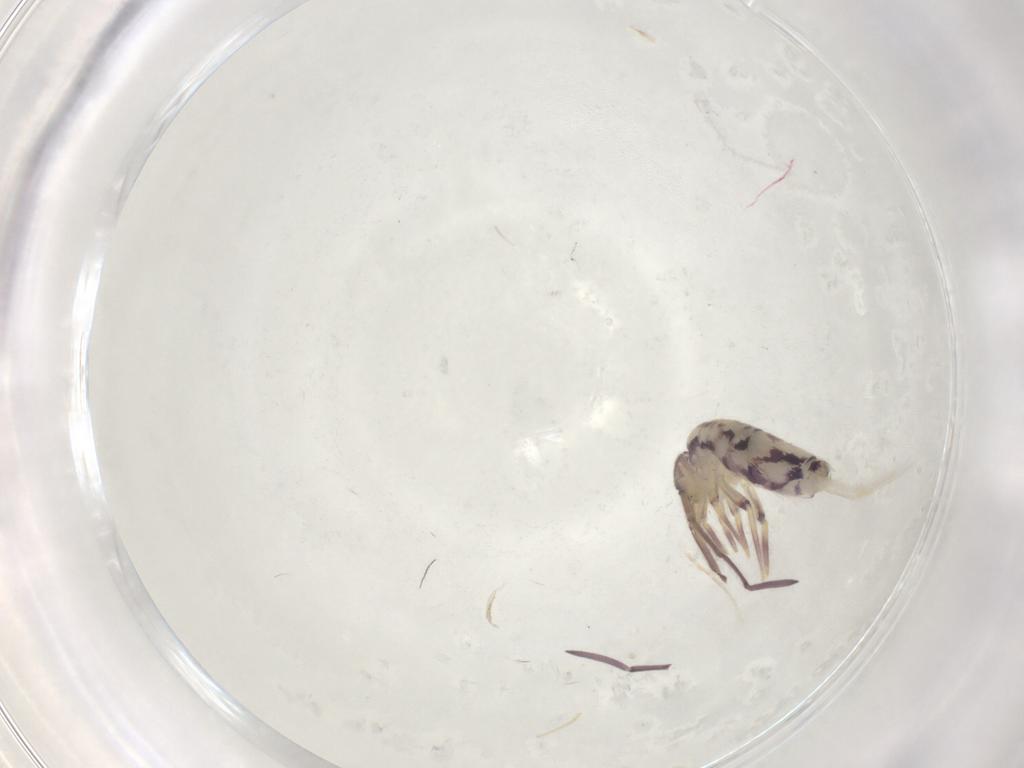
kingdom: Animalia
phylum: Arthropoda
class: Collembola
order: Entomobryomorpha
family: Entomobryidae
